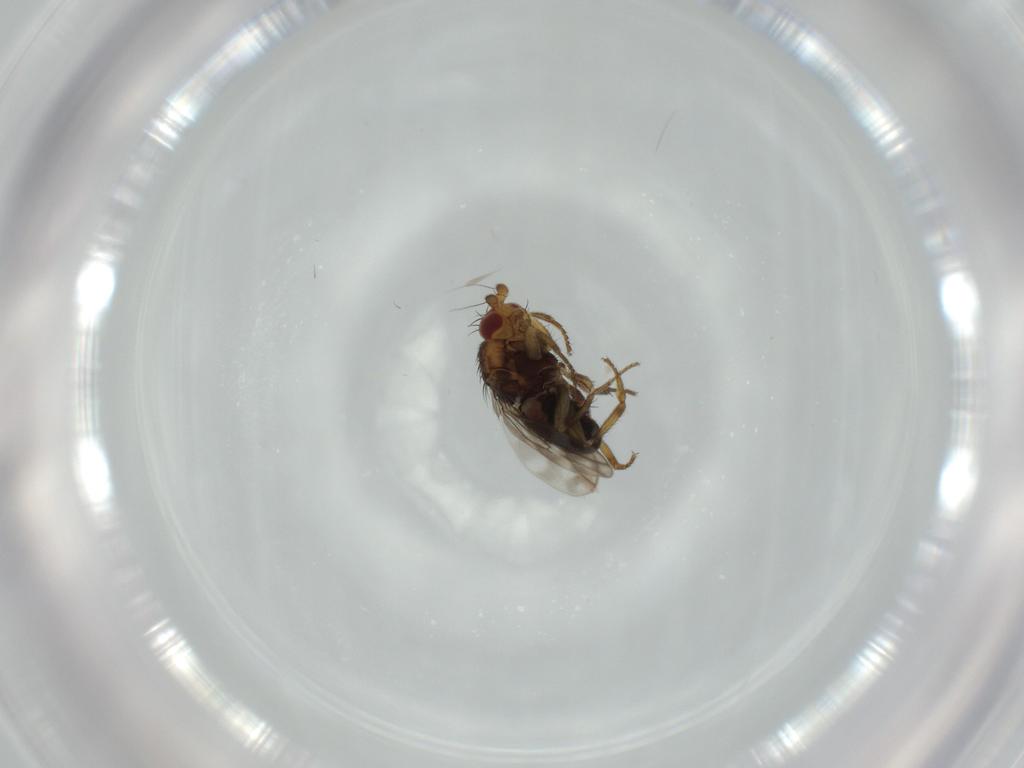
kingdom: Animalia
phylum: Arthropoda
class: Insecta
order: Diptera
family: Sphaeroceridae
